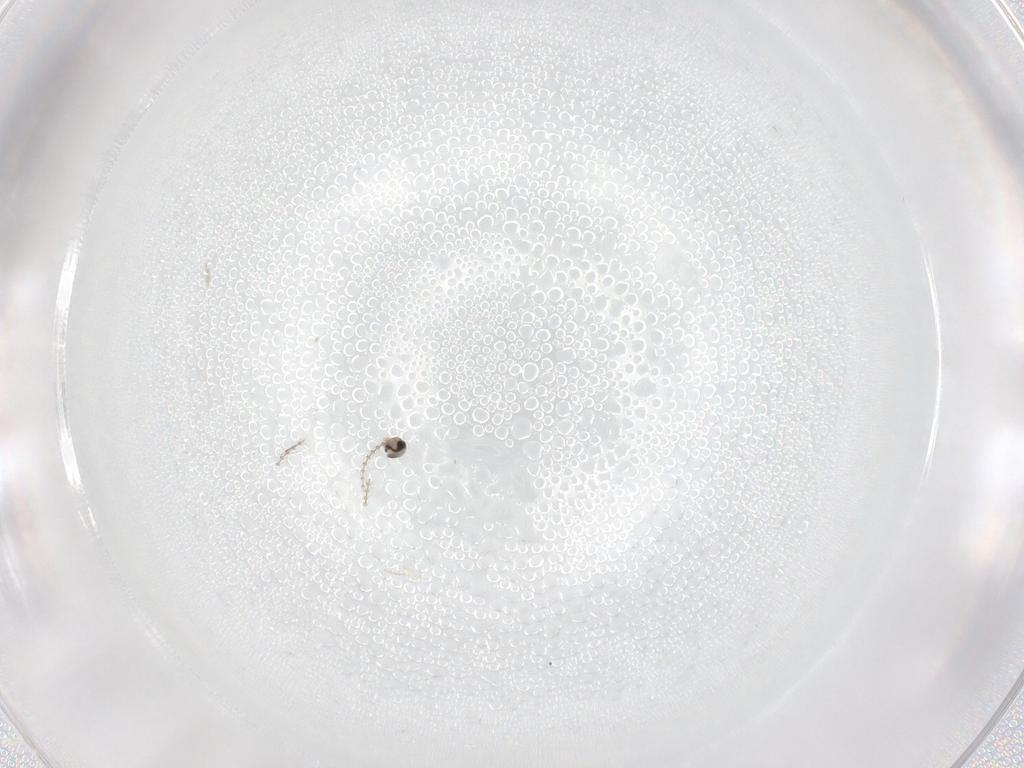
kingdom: Animalia
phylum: Arthropoda
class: Insecta
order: Diptera
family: Cecidomyiidae
